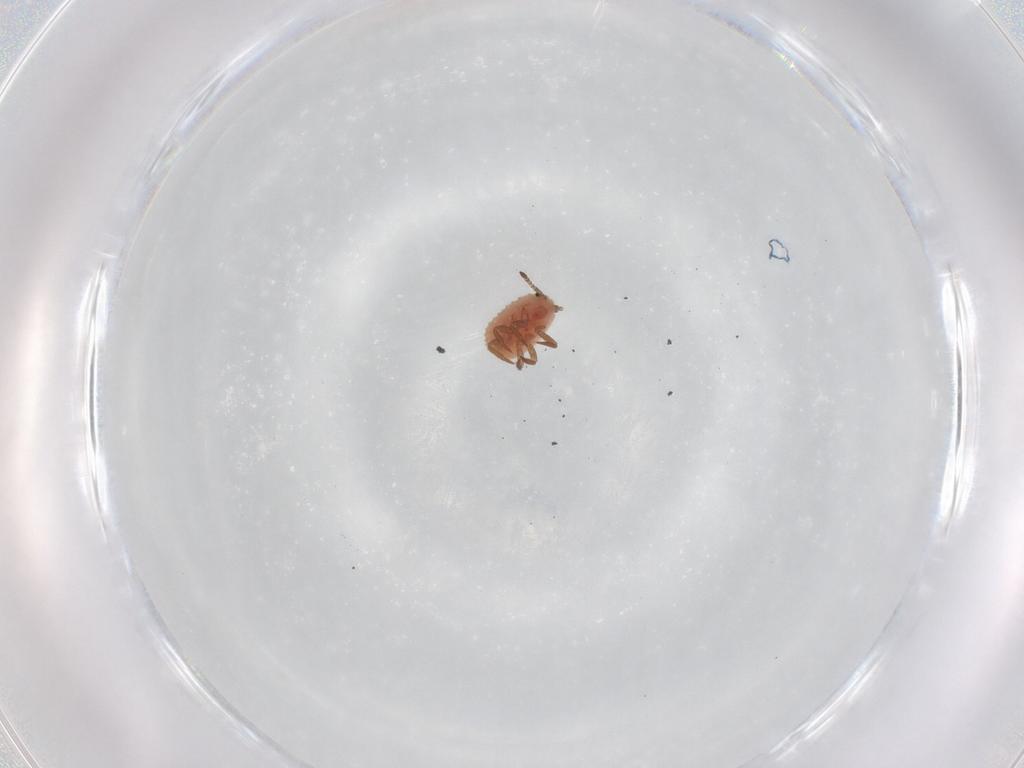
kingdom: Animalia
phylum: Arthropoda
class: Insecta
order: Hemiptera
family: Putoidae
